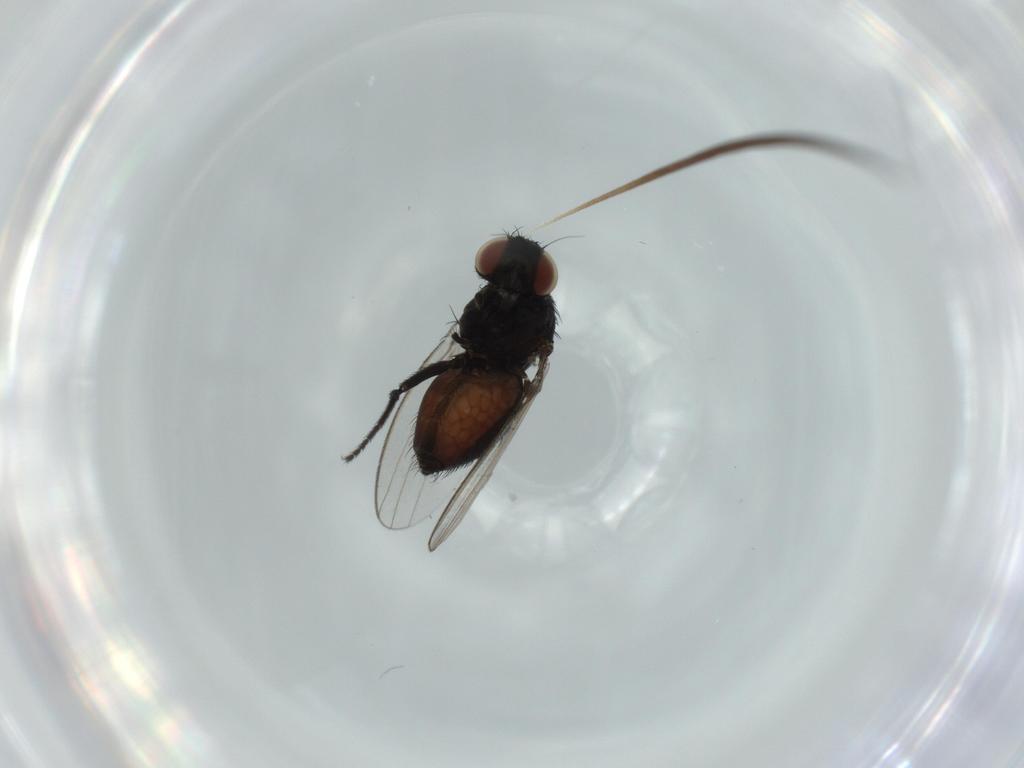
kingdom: Animalia
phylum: Arthropoda
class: Insecta
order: Diptera
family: Milichiidae
